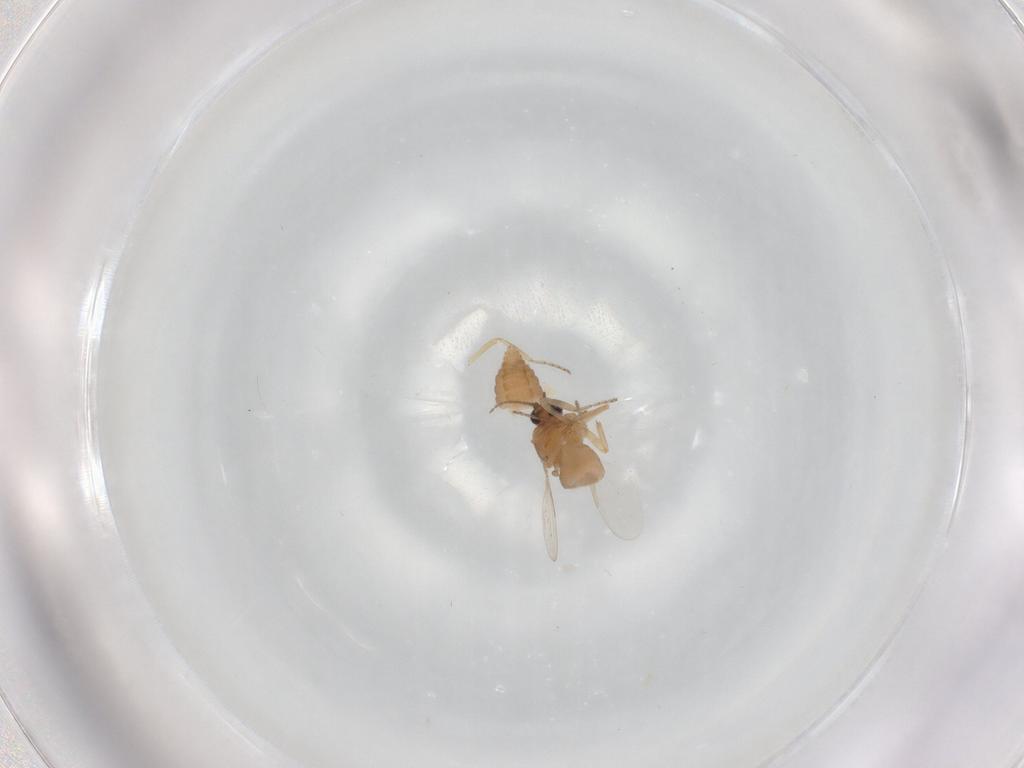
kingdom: Animalia
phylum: Arthropoda
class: Insecta
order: Diptera
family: Ceratopogonidae
